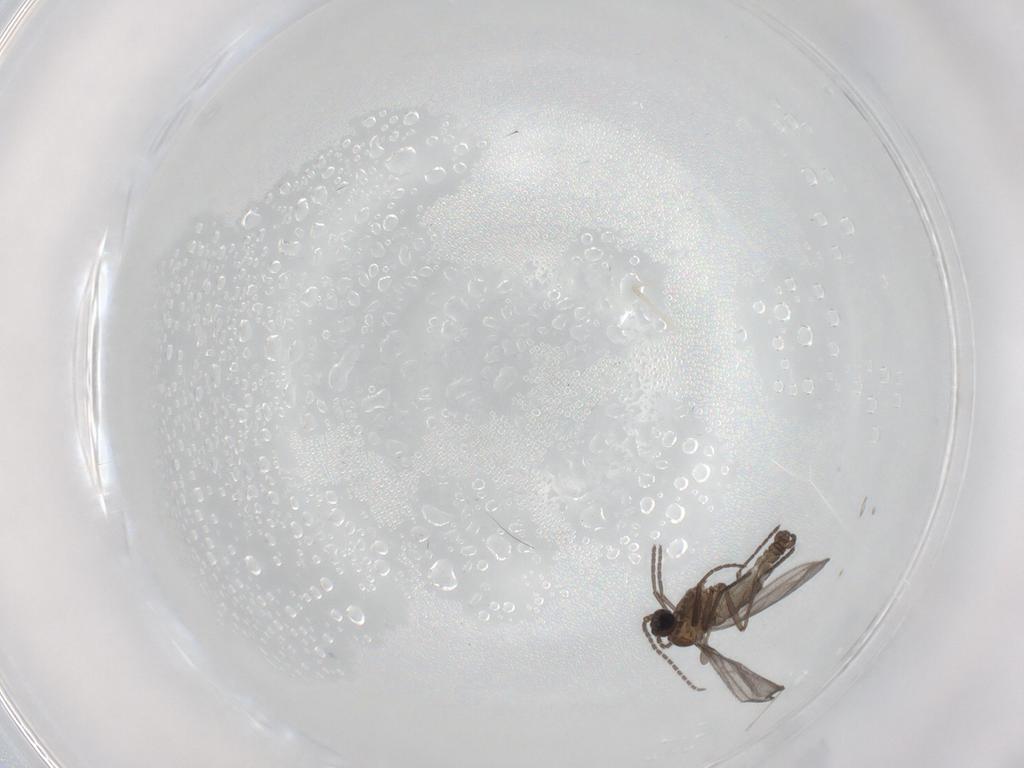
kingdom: Animalia
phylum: Arthropoda
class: Insecta
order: Diptera
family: Sciaridae
